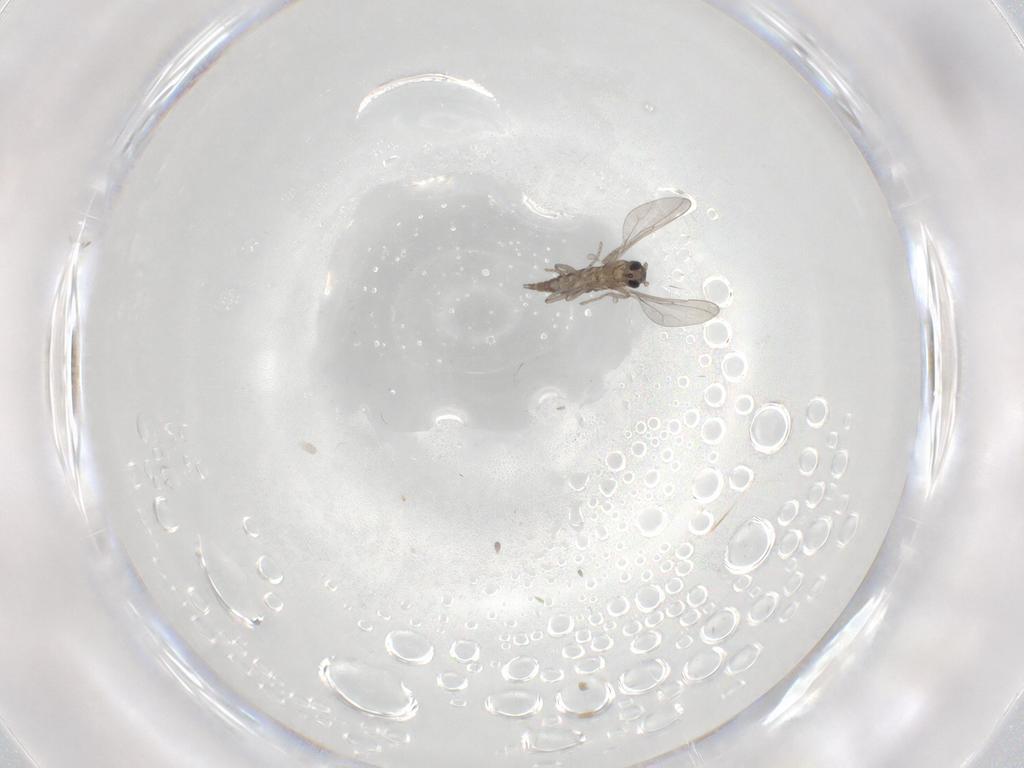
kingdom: Animalia
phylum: Arthropoda
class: Insecta
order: Diptera
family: Cecidomyiidae
